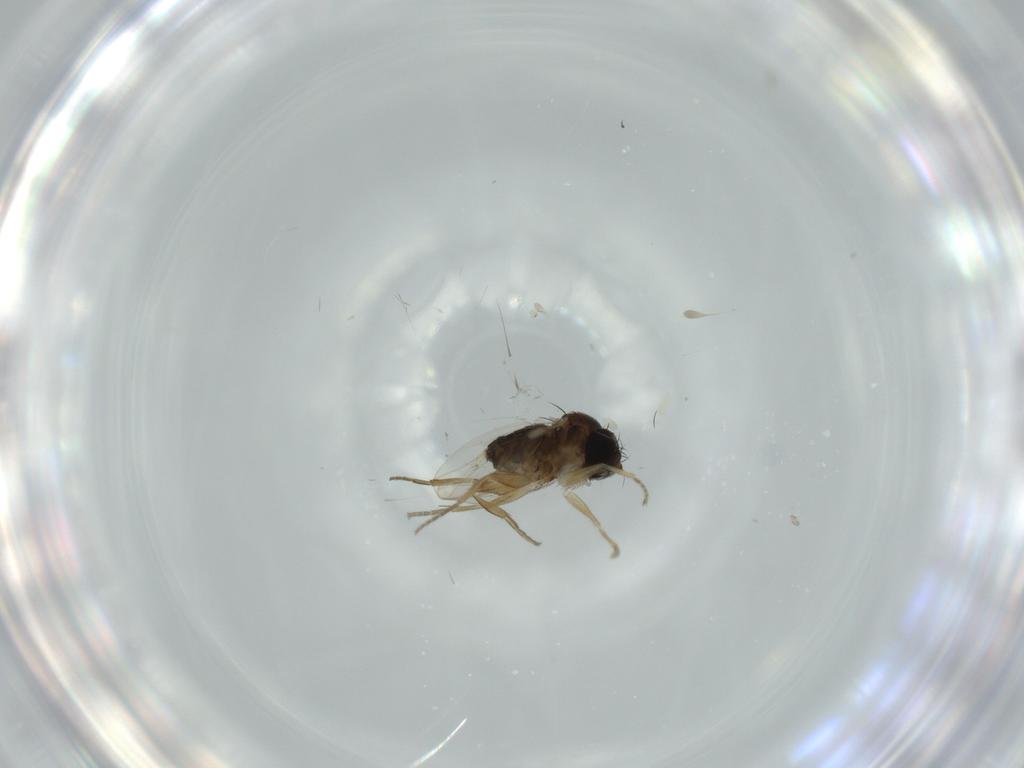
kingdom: Animalia
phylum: Arthropoda
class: Insecta
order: Diptera
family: Phoridae
